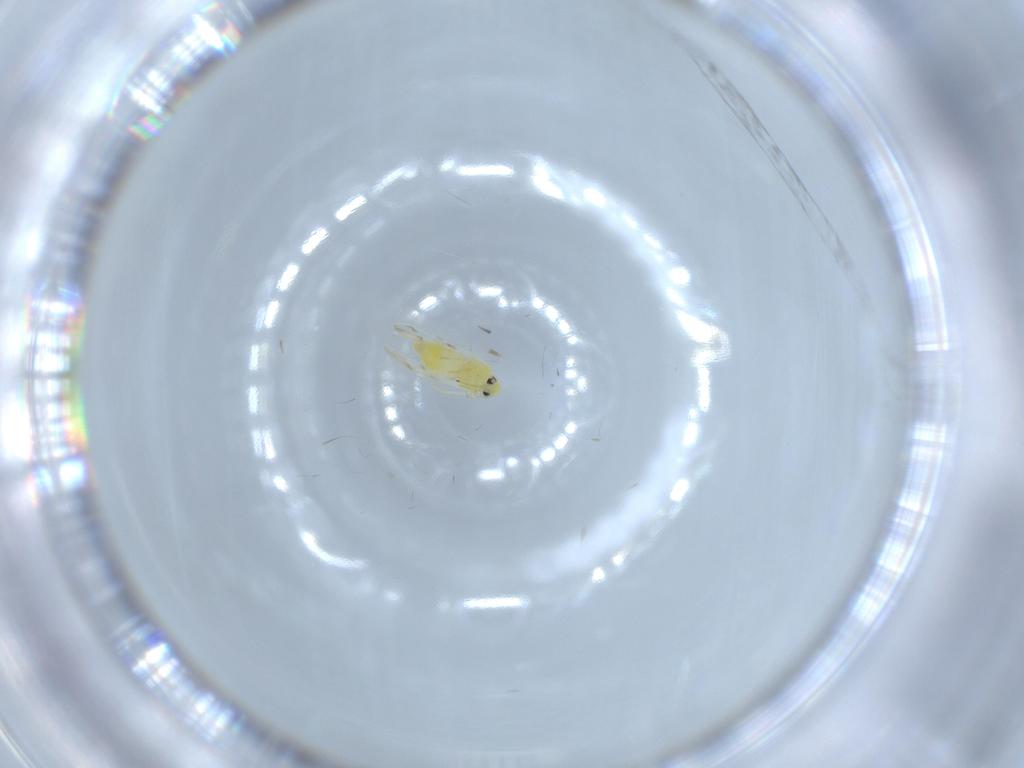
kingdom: Animalia
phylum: Arthropoda
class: Insecta
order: Hemiptera
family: Aleyrodidae
